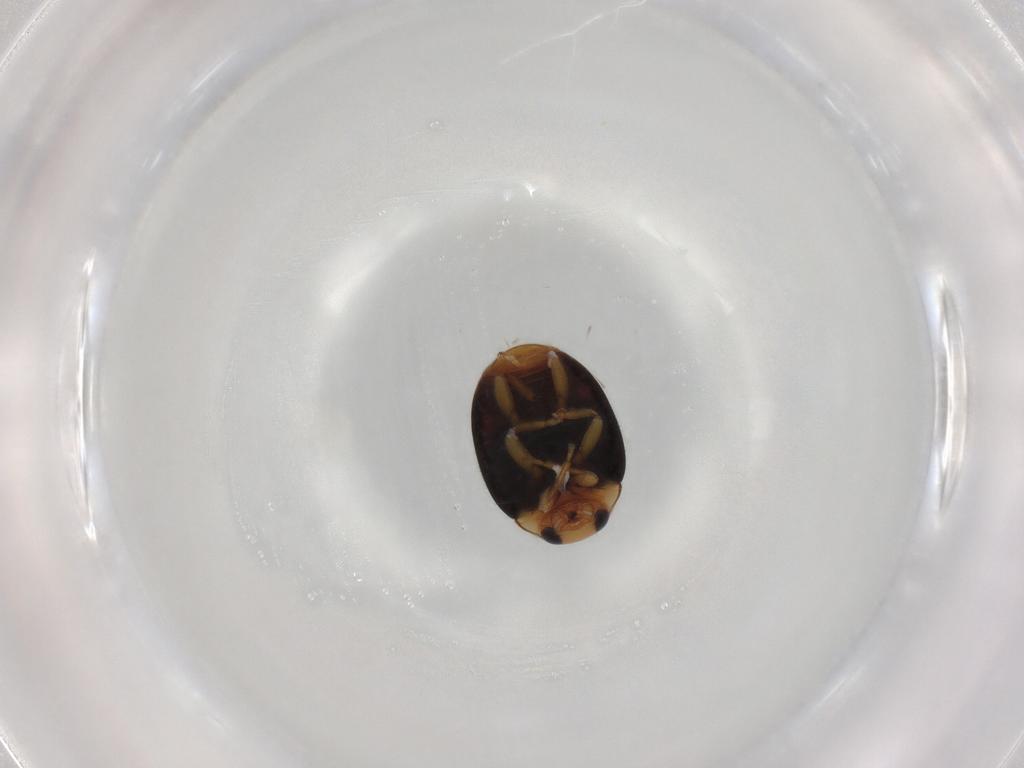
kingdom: Animalia
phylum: Arthropoda
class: Insecta
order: Coleoptera
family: Coccinellidae
